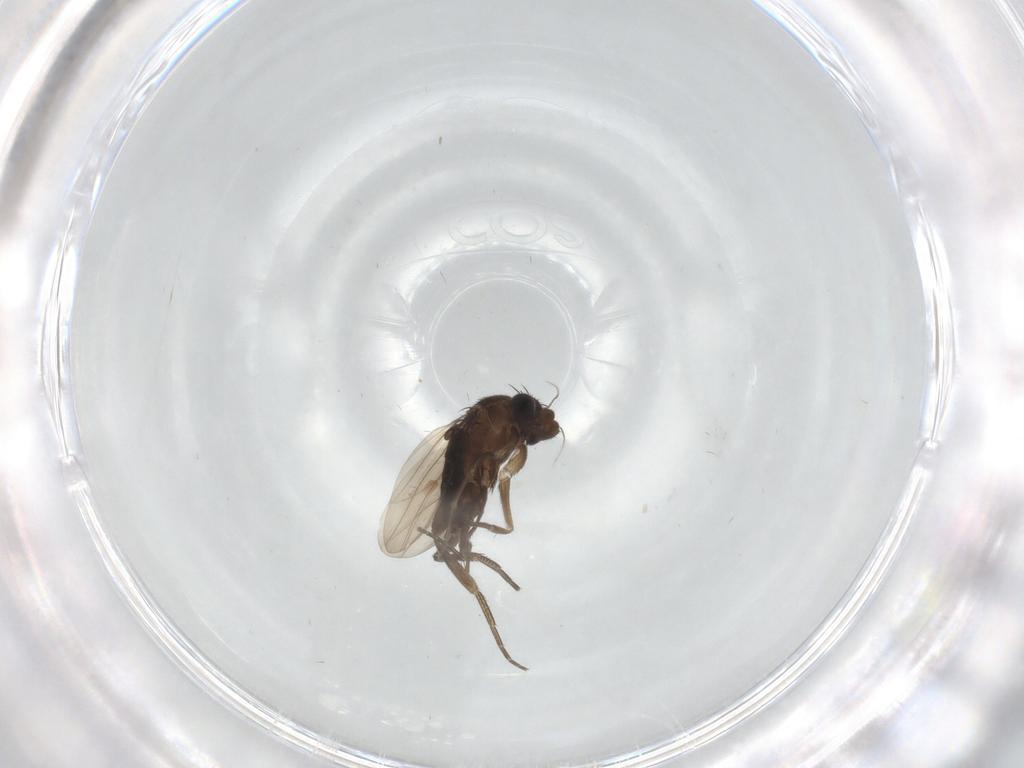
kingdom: Animalia
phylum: Arthropoda
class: Insecta
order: Diptera
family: Phoridae
